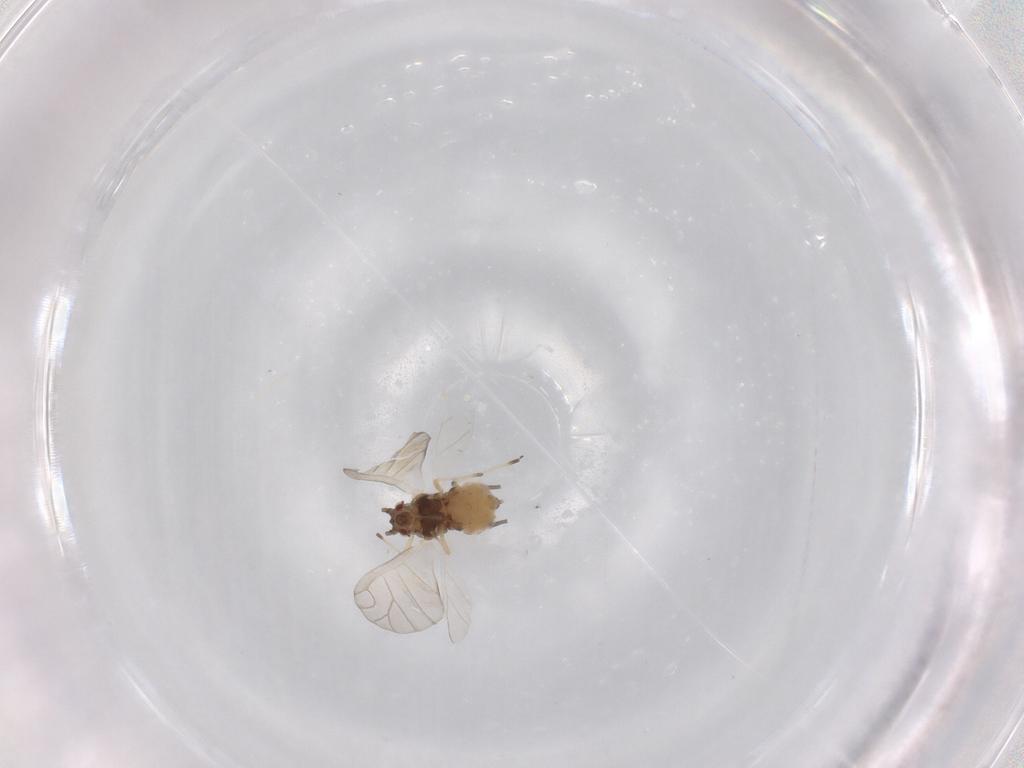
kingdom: Animalia
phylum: Arthropoda
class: Insecta
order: Hemiptera
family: Aphididae
